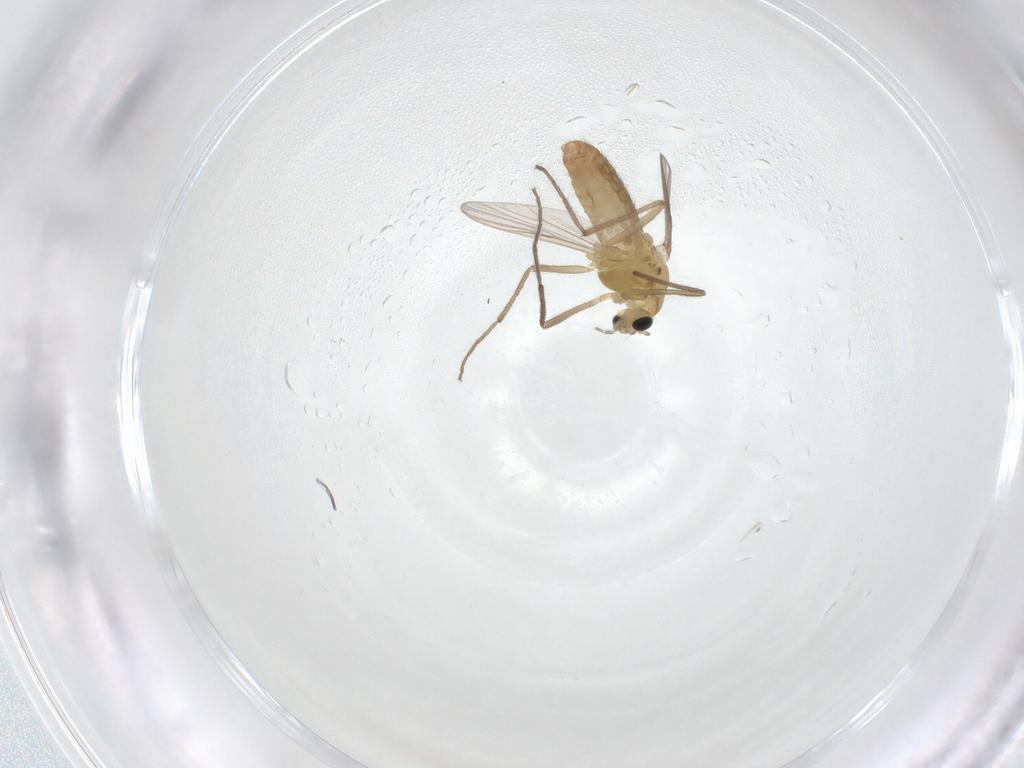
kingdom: Animalia
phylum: Arthropoda
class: Insecta
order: Diptera
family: Chironomidae
